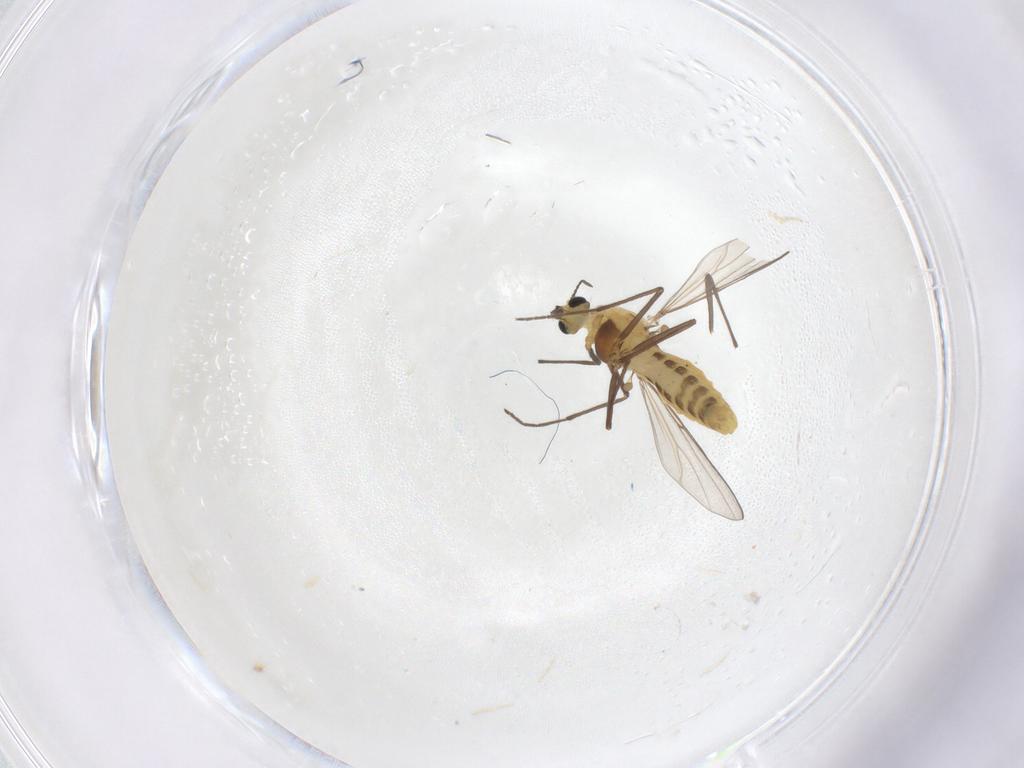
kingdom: Animalia
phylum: Arthropoda
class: Insecta
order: Diptera
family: Chironomidae
